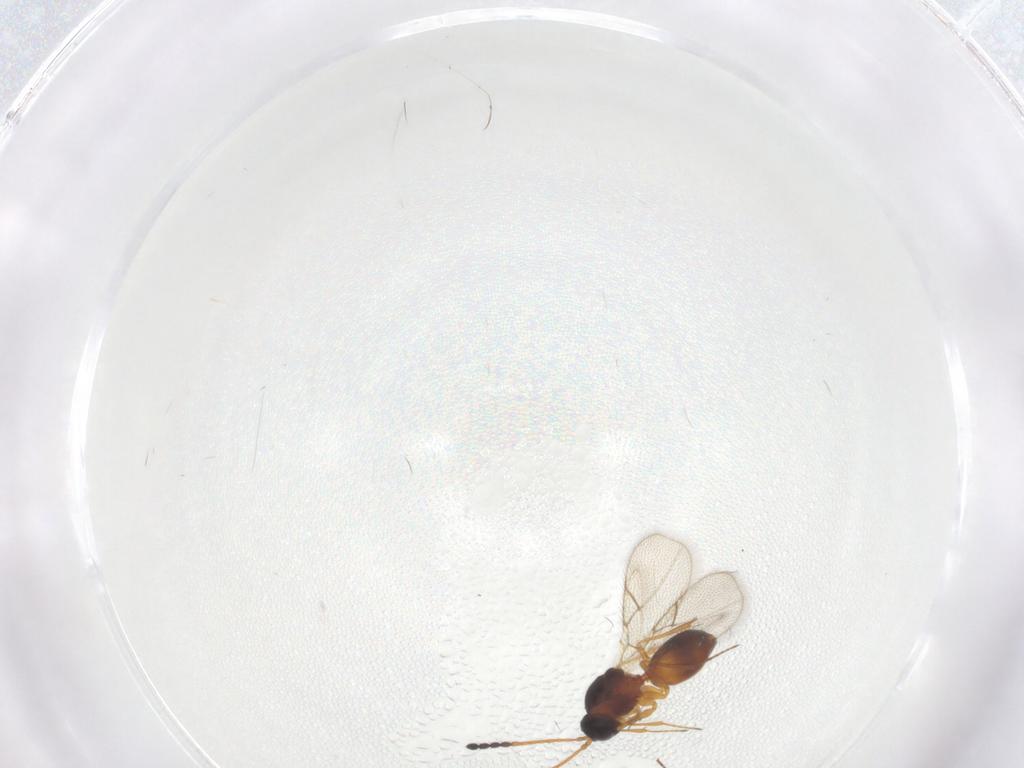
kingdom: Animalia
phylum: Arthropoda
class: Insecta
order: Hymenoptera
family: Figitidae
